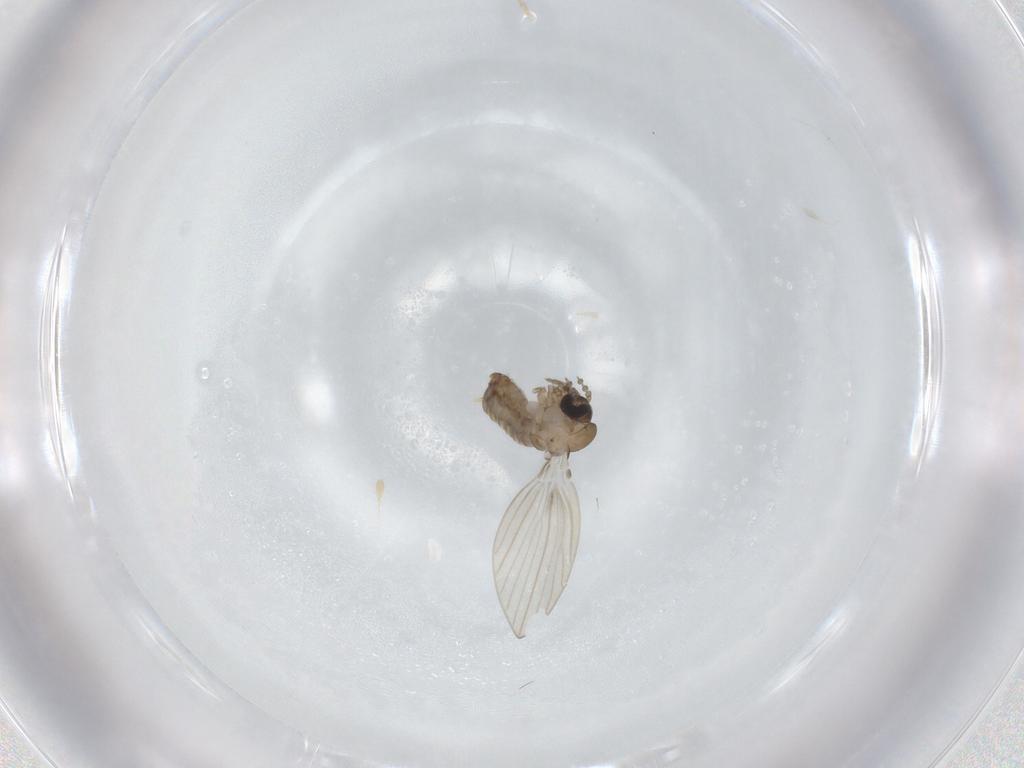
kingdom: Animalia
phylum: Arthropoda
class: Insecta
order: Diptera
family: Psychodidae
